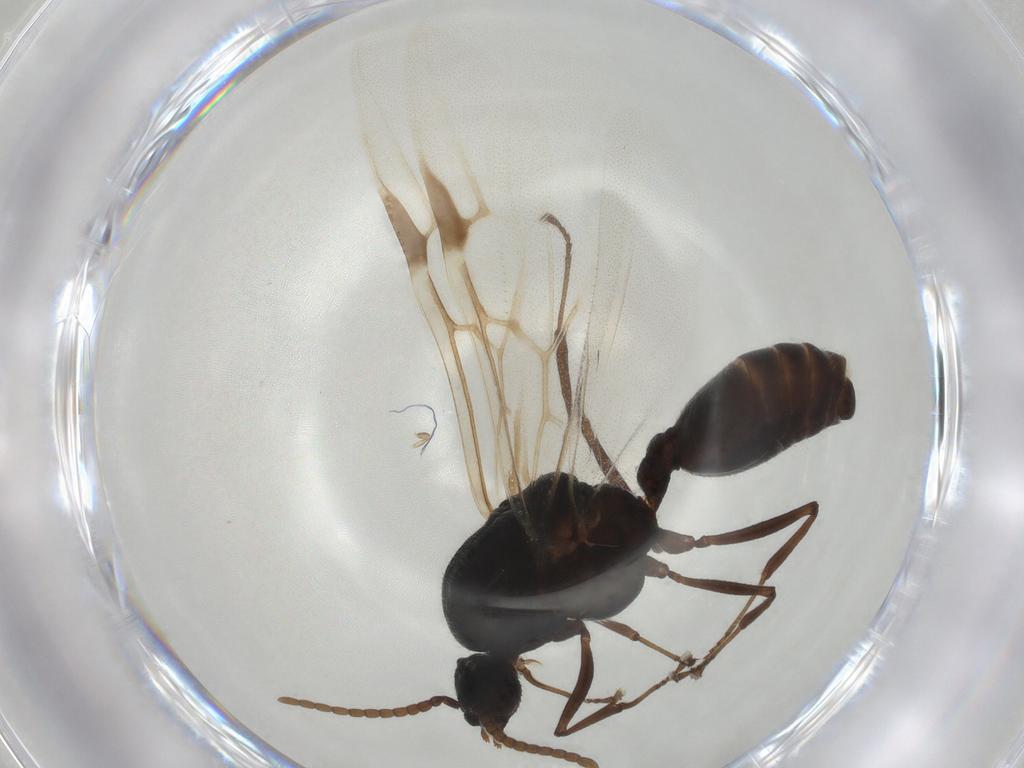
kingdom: Animalia
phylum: Arthropoda
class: Insecta
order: Hymenoptera
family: Formicidae
